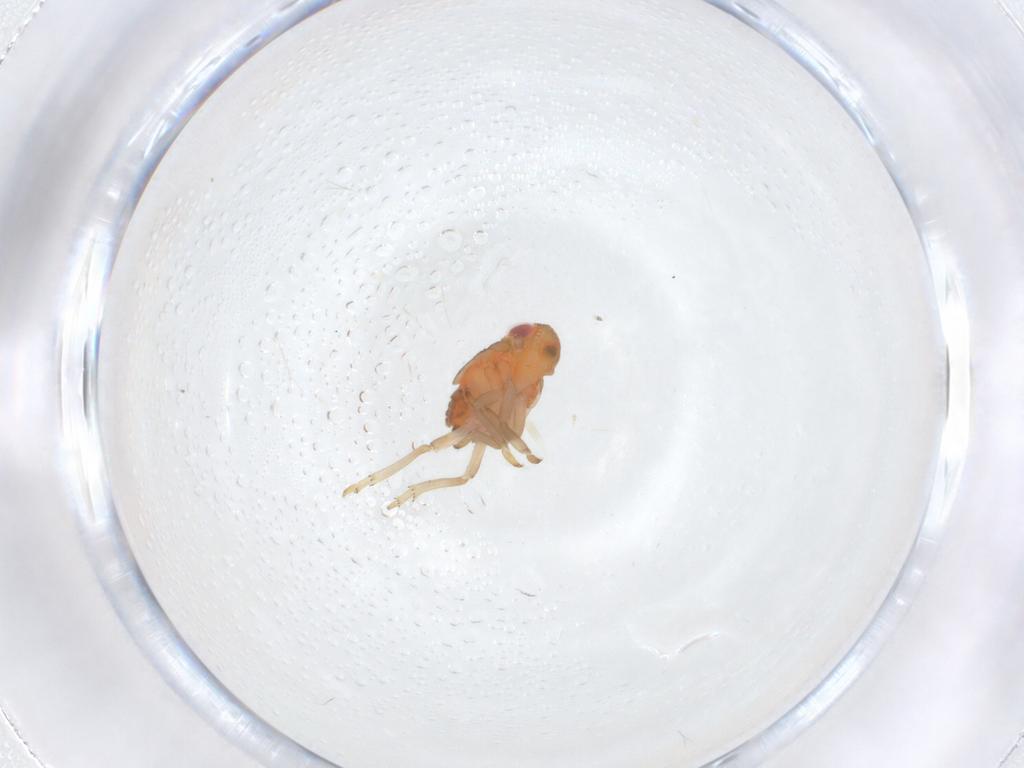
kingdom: Animalia
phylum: Arthropoda
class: Insecta
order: Hemiptera
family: Fulgoroidea_incertae_sedis
